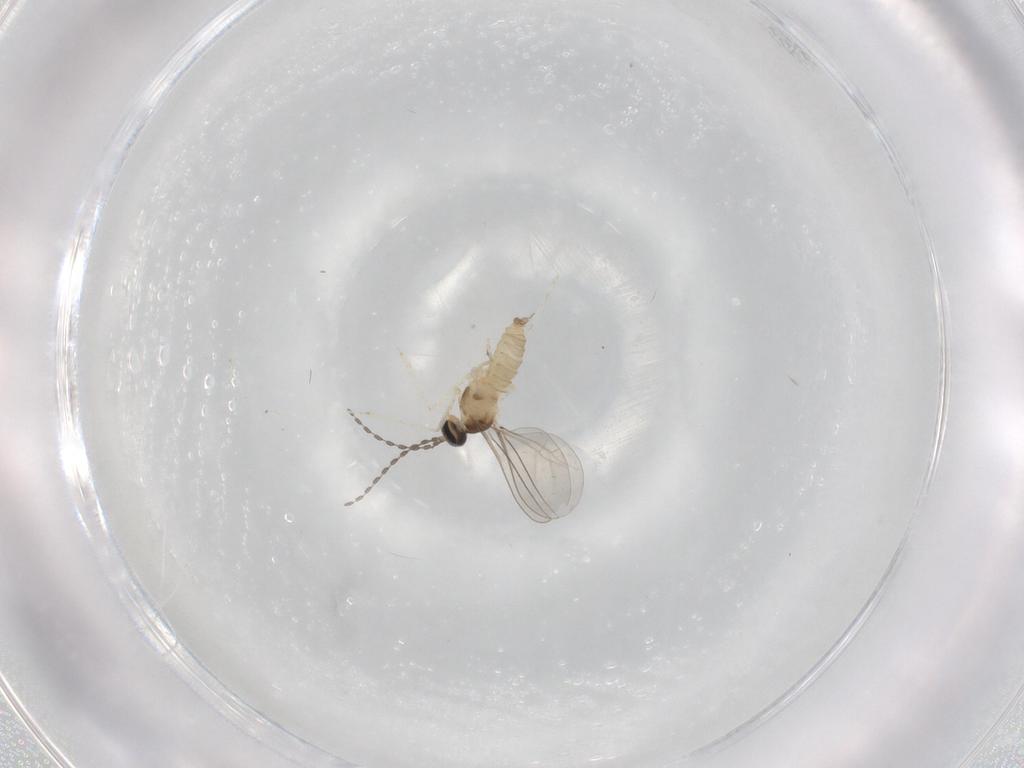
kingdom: Animalia
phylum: Arthropoda
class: Insecta
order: Diptera
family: Cecidomyiidae
